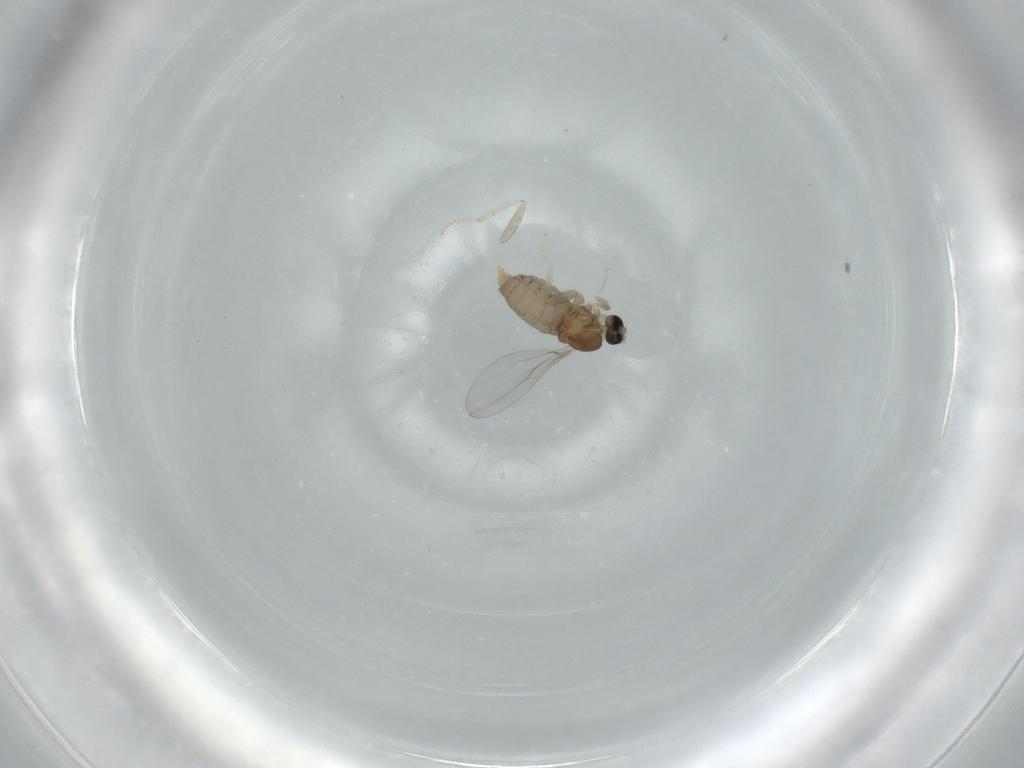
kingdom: Animalia
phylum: Arthropoda
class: Insecta
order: Diptera
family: Cecidomyiidae
